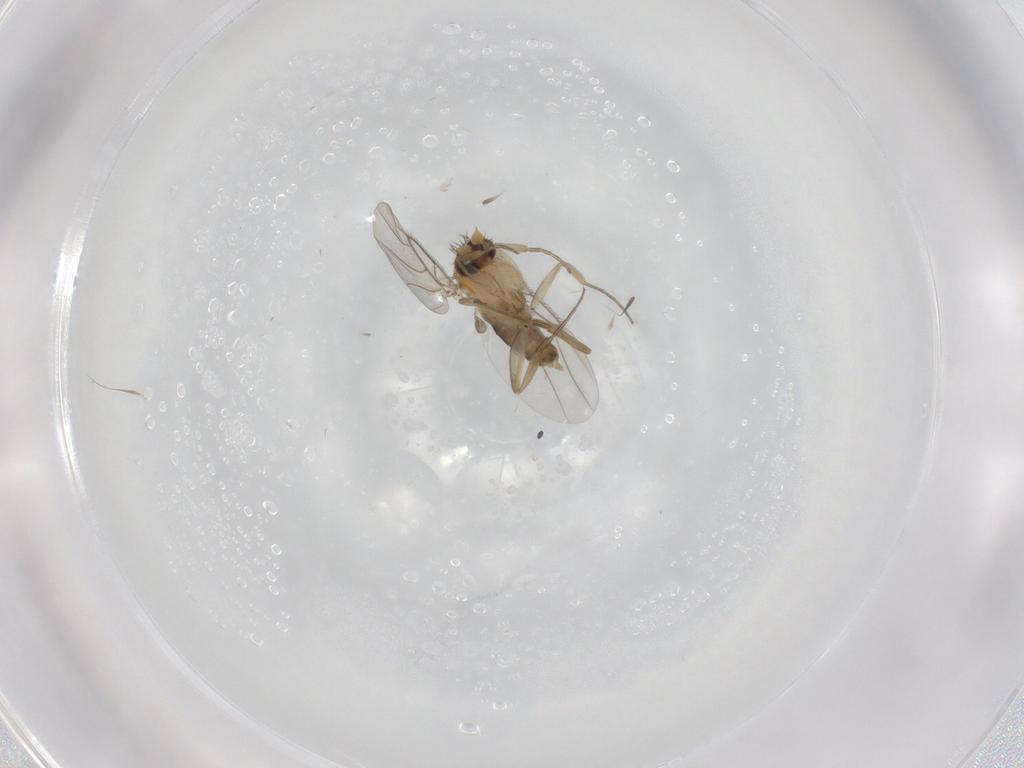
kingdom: Animalia
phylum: Arthropoda
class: Insecta
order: Diptera
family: Phoridae
